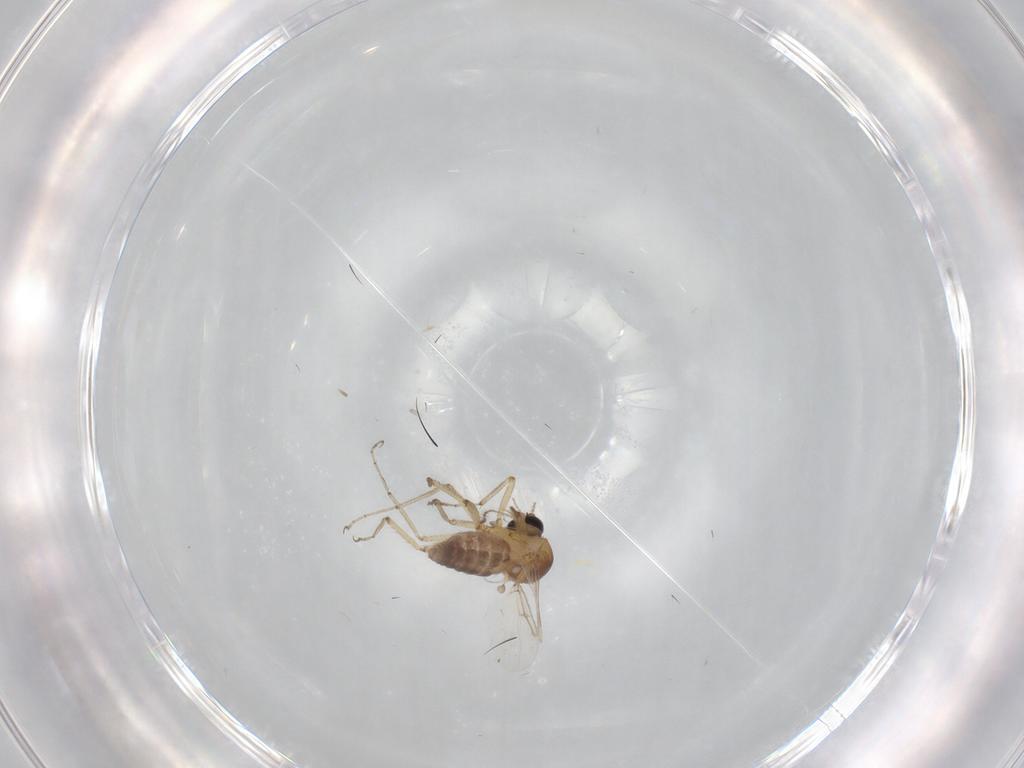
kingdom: Animalia
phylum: Arthropoda
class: Insecta
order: Diptera
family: Ceratopogonidae
